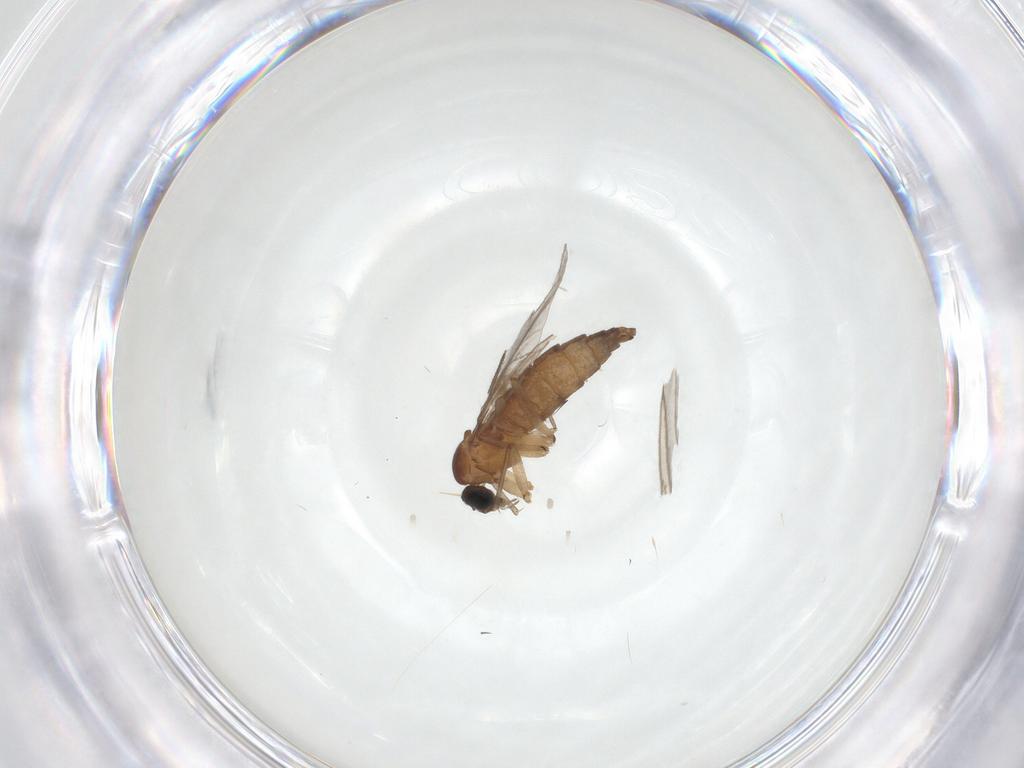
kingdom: Animalia
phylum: Arthropoda
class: Insecta
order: Diptera
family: Sciaridae
